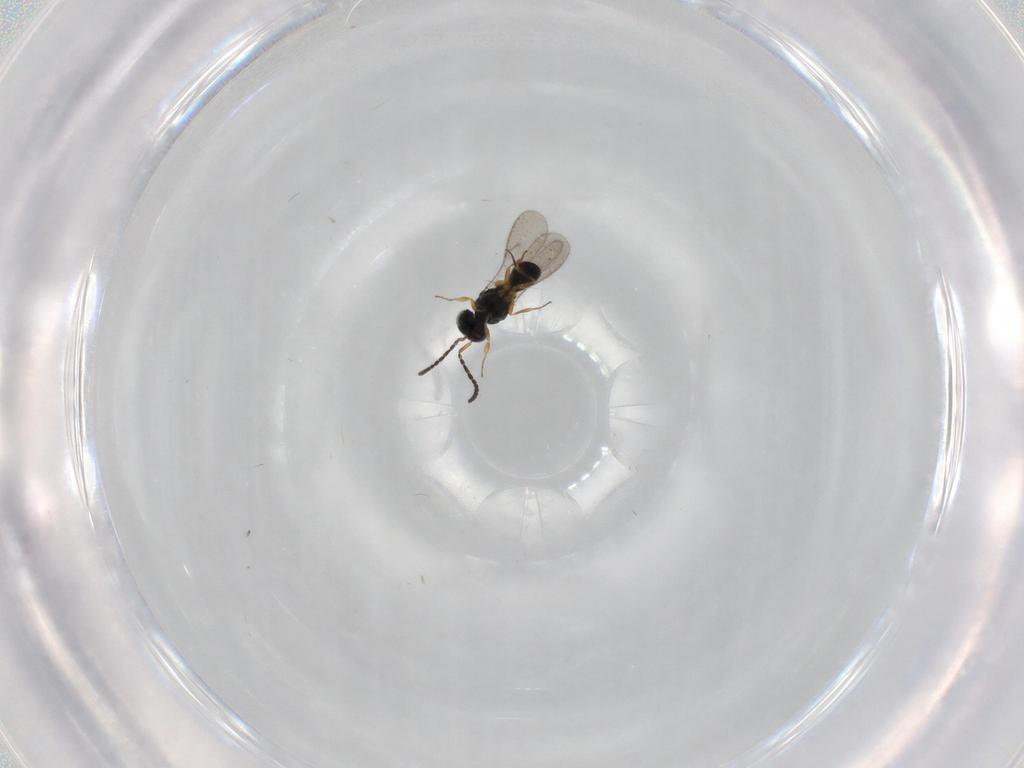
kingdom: Animalia
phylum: Arthropoda
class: Insecta
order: Hymenoptera
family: Scelionidae
